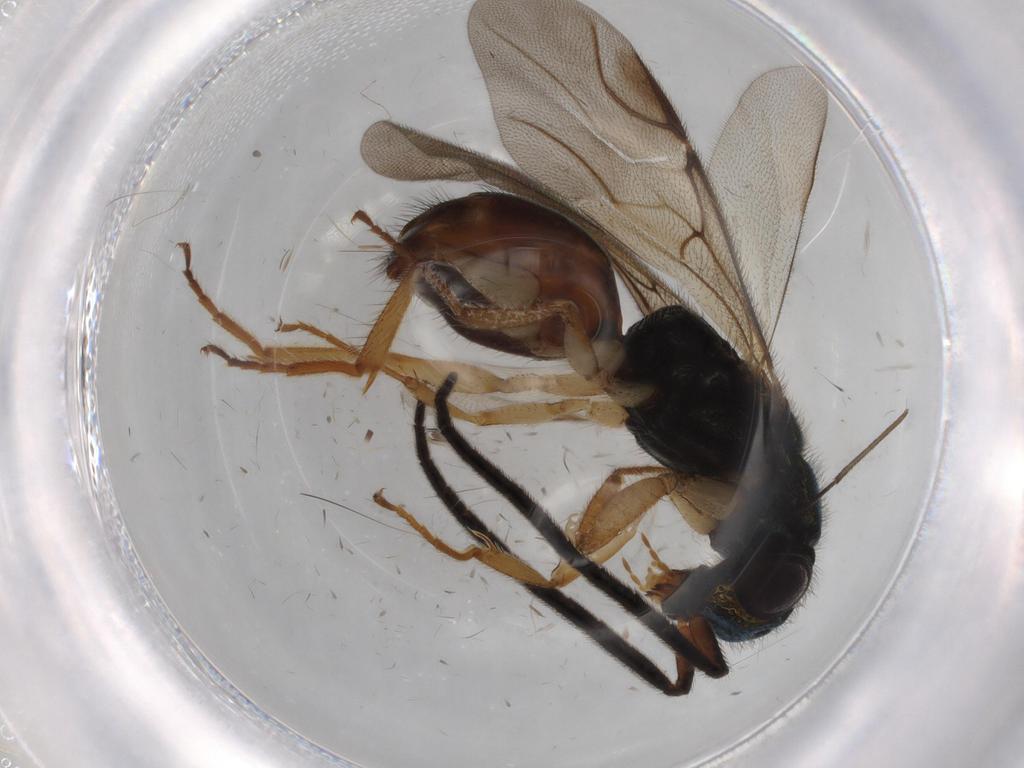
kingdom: Animalia
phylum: Arthropoda
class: Insecta
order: Hymenoptera
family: Chrysididae
